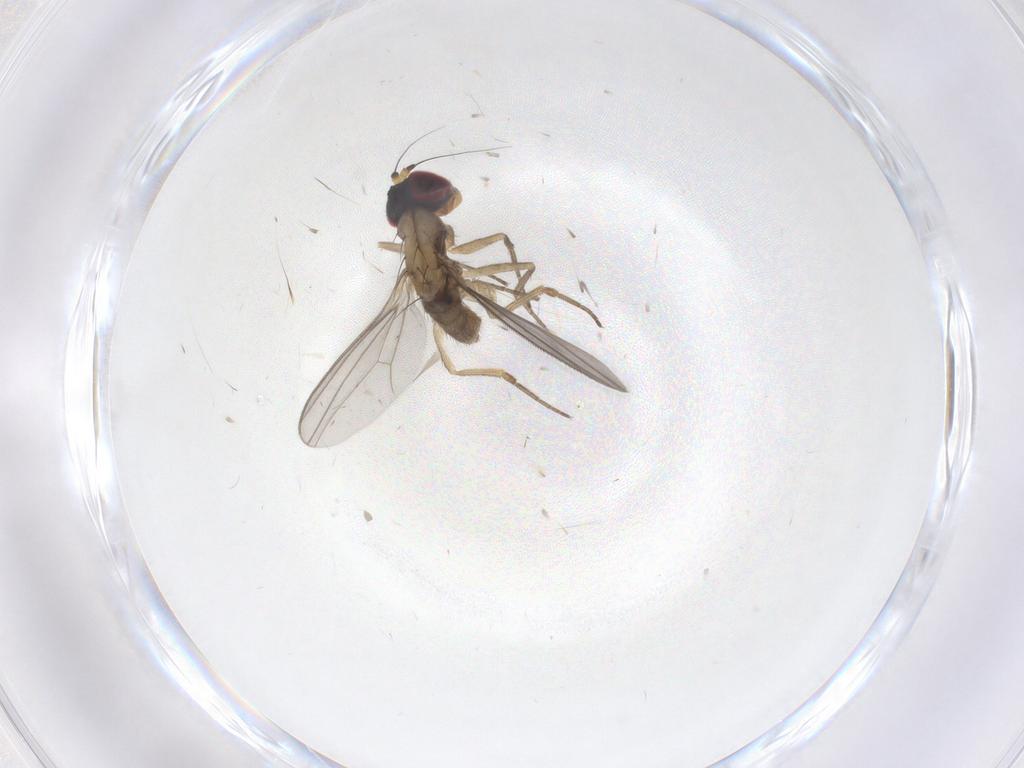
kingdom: Animalia
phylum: Arthropoda
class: Insecta
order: Diptera
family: Dolichopodidae
